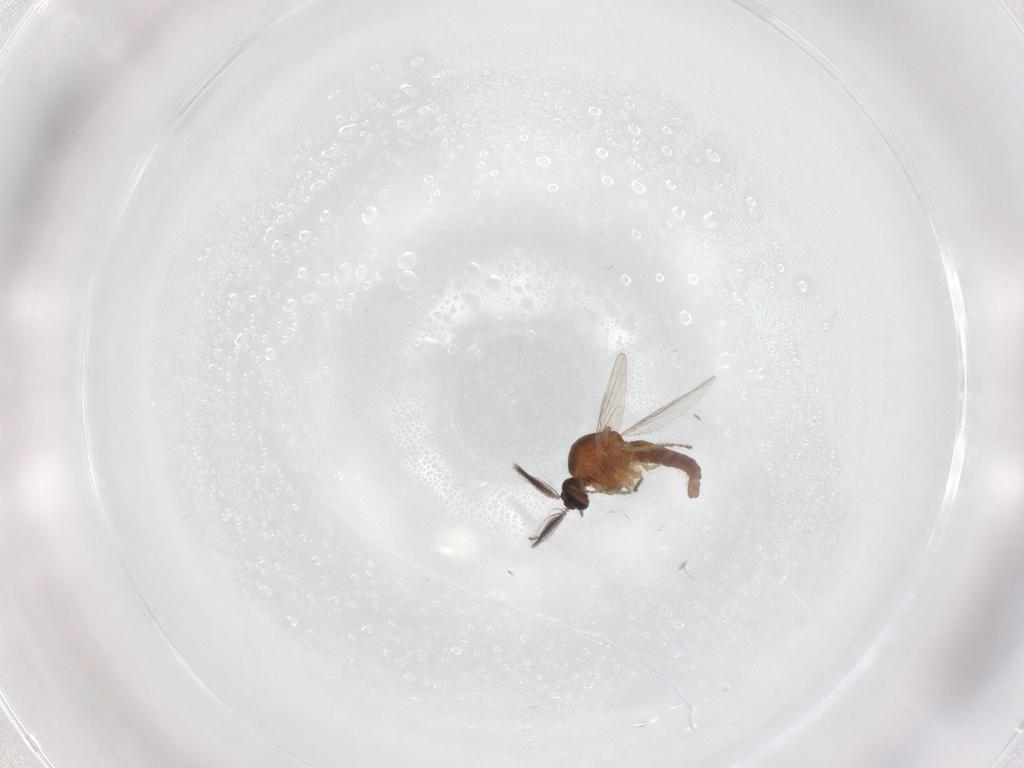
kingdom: Animalia
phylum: Arthropoda
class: Insecta
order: Diptera
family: Ceratopogonidae
